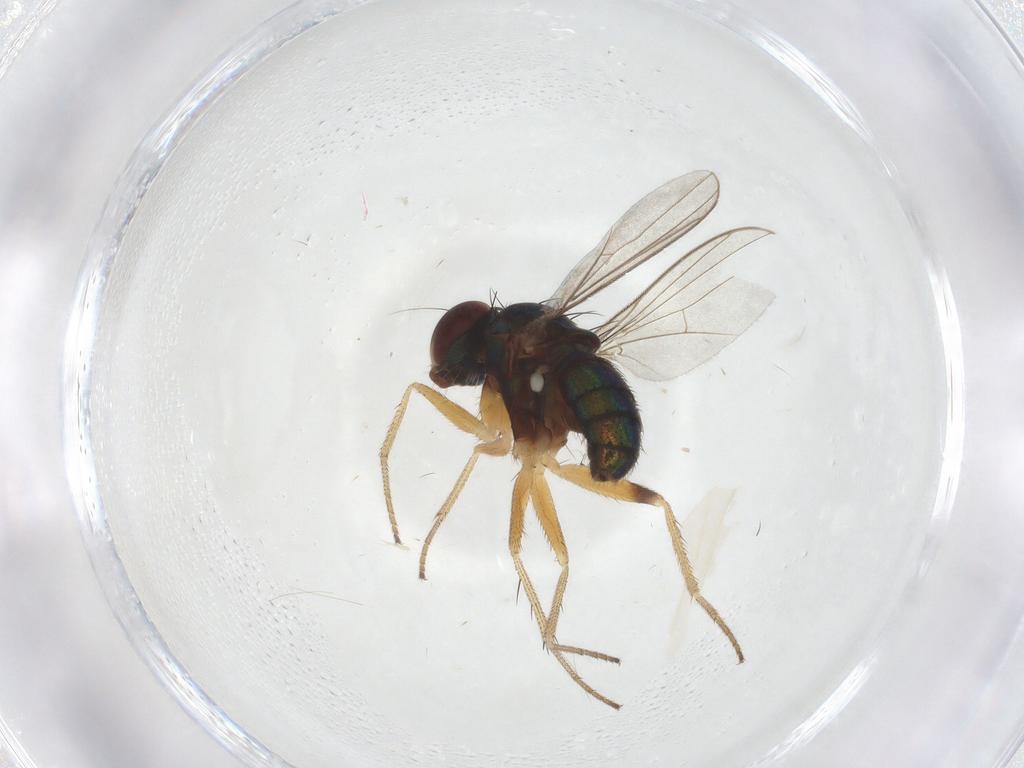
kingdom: Animalia
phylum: Arthropoda
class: Insecta
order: Diptera
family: Dolichopodidae
